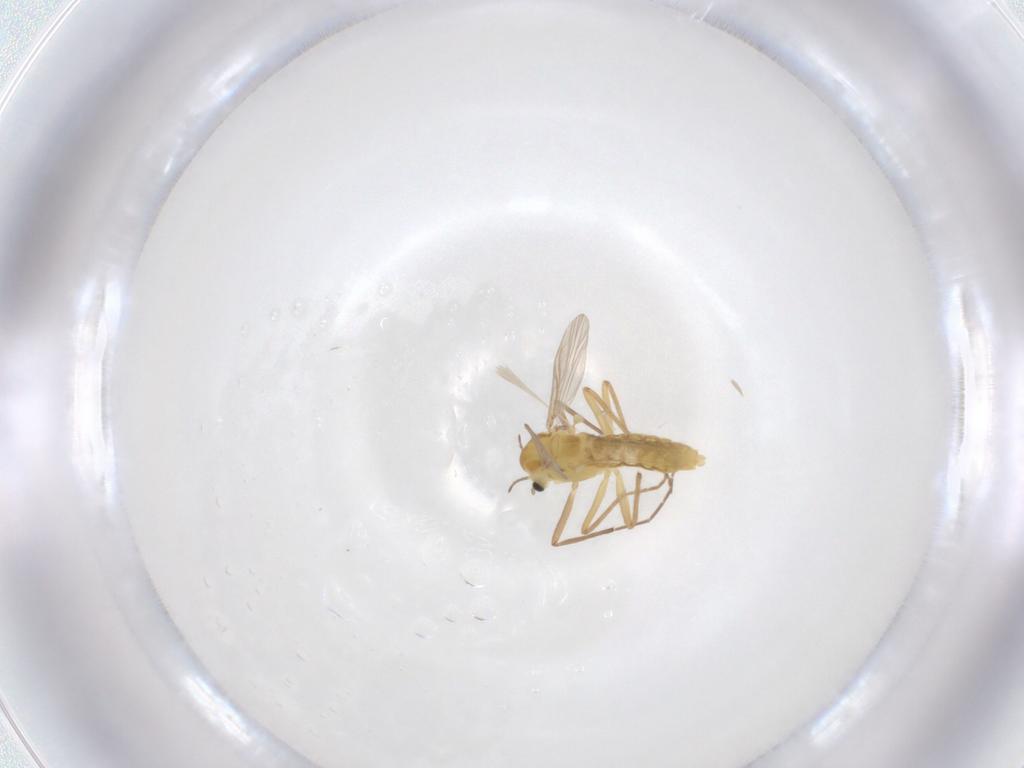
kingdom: Animalia
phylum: Arthropoda
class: Insecta
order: Diptera
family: Chironomidae
